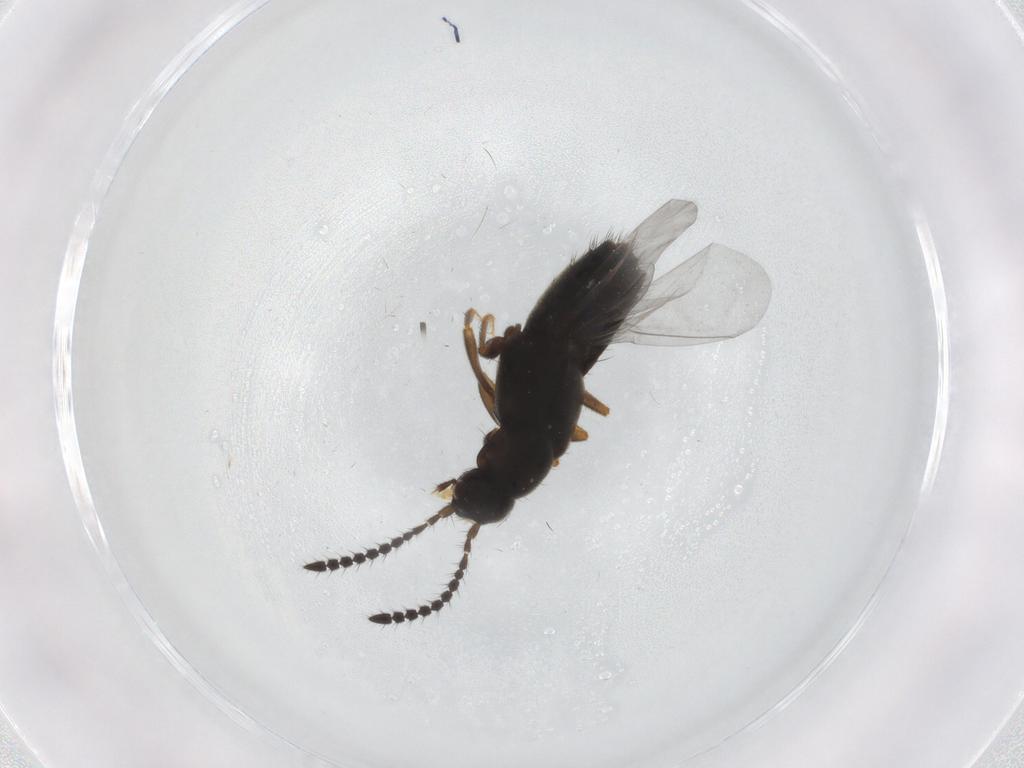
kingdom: Animalia
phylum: Arthropoda
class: Insecta
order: Coleoptera
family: Staphylinidae
